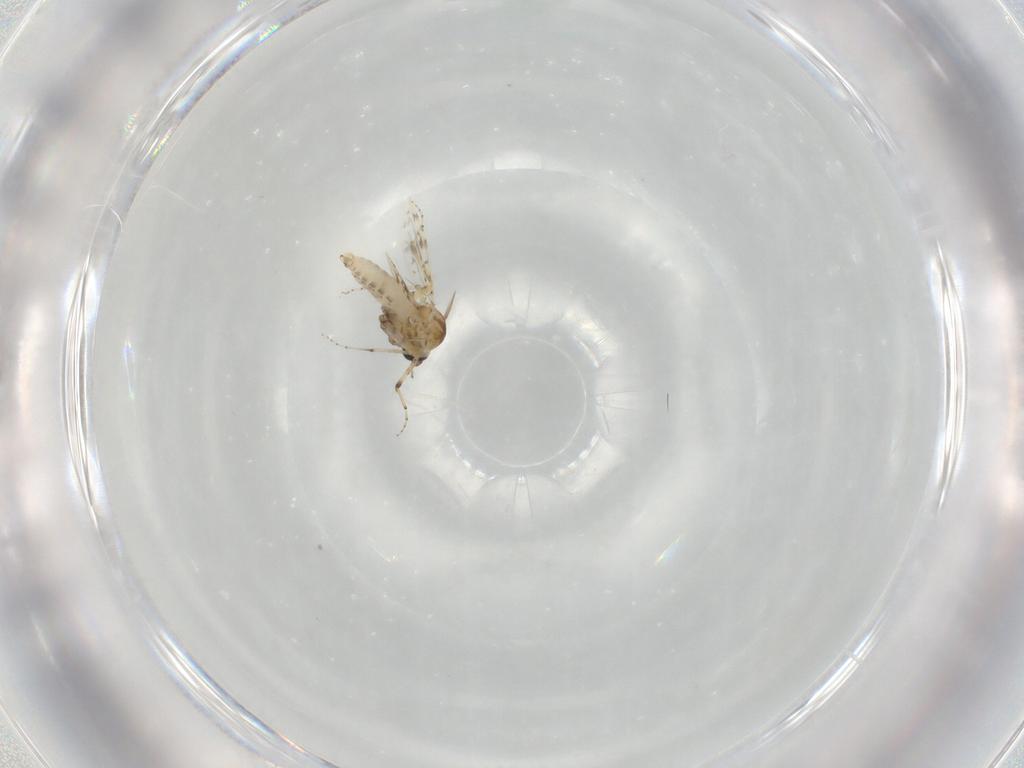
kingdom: Animalia
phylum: Arthropoda
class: Insecta
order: Diptera
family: Ceratopogonidae
